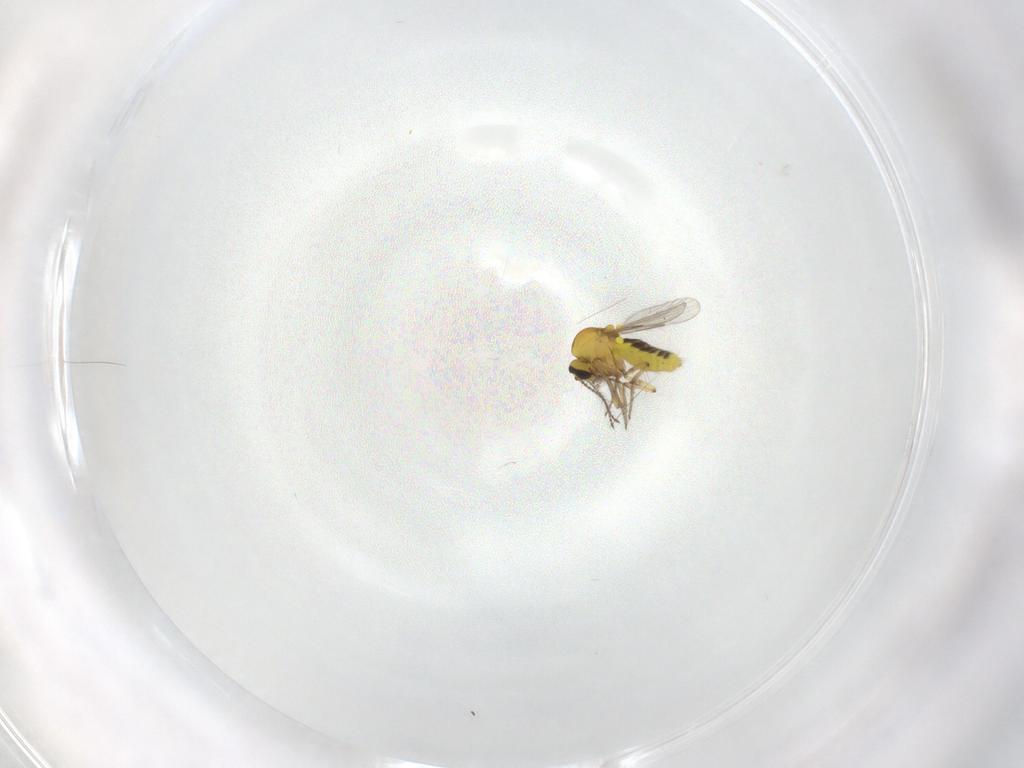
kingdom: Animalia
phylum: Arthropoda
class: Insecta
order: Diptera
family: Ceratopogonidae
